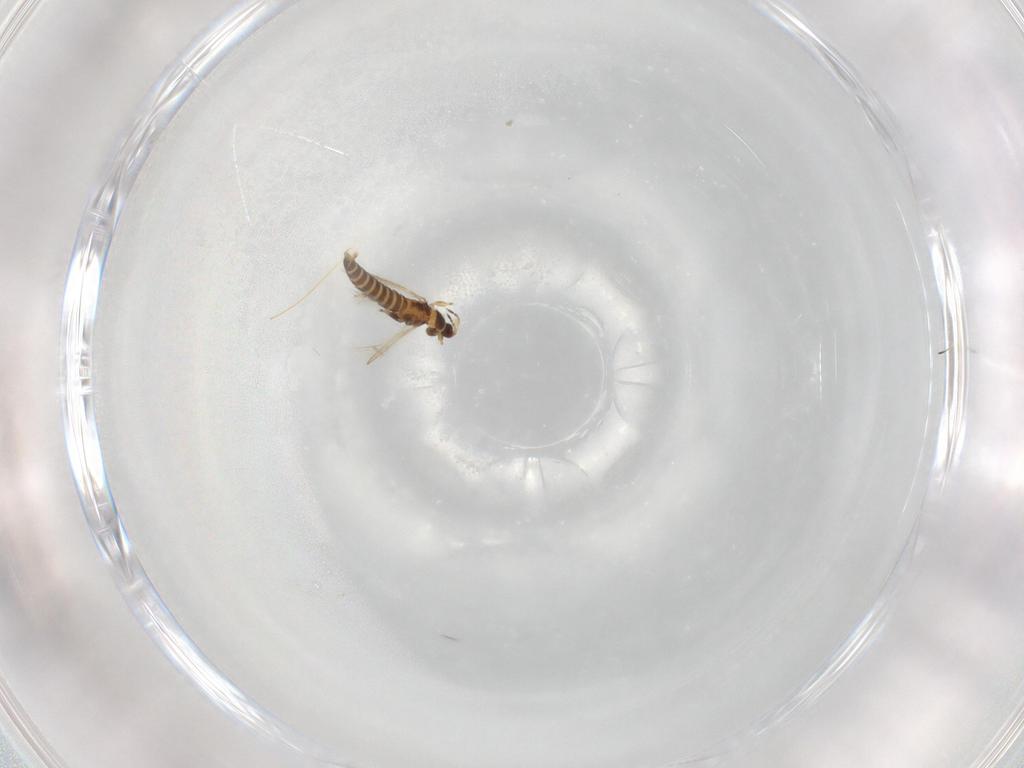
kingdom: Animalia
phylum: Arthropoda
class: Insecta
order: Thysanoptera
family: Thripidae
